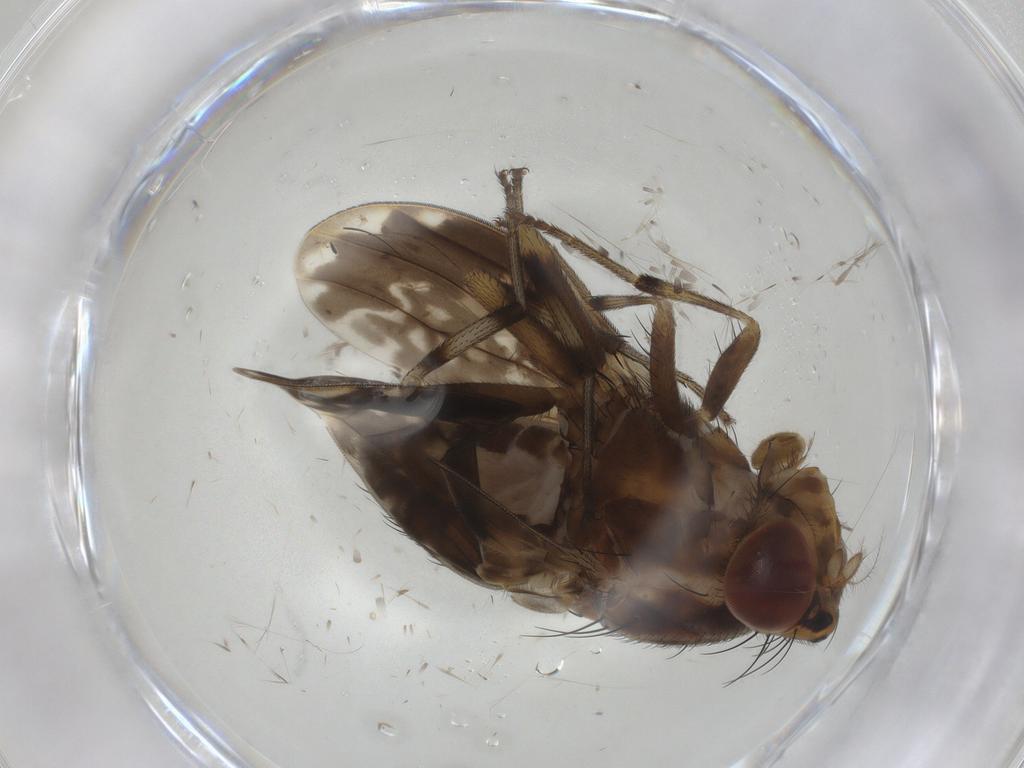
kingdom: Animalia
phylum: Arthropoda
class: Insecta
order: Diptera
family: Lauxaniidae
